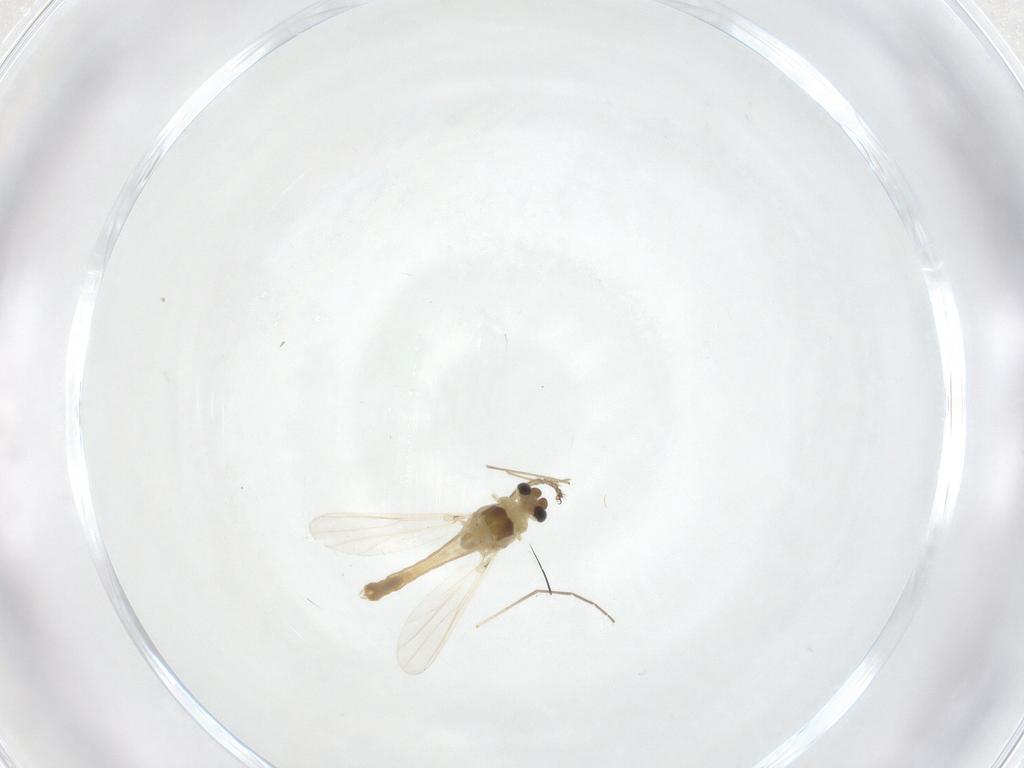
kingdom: Animalia
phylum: Arthropoda
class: Insecta
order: Diptera
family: Chironomidae
